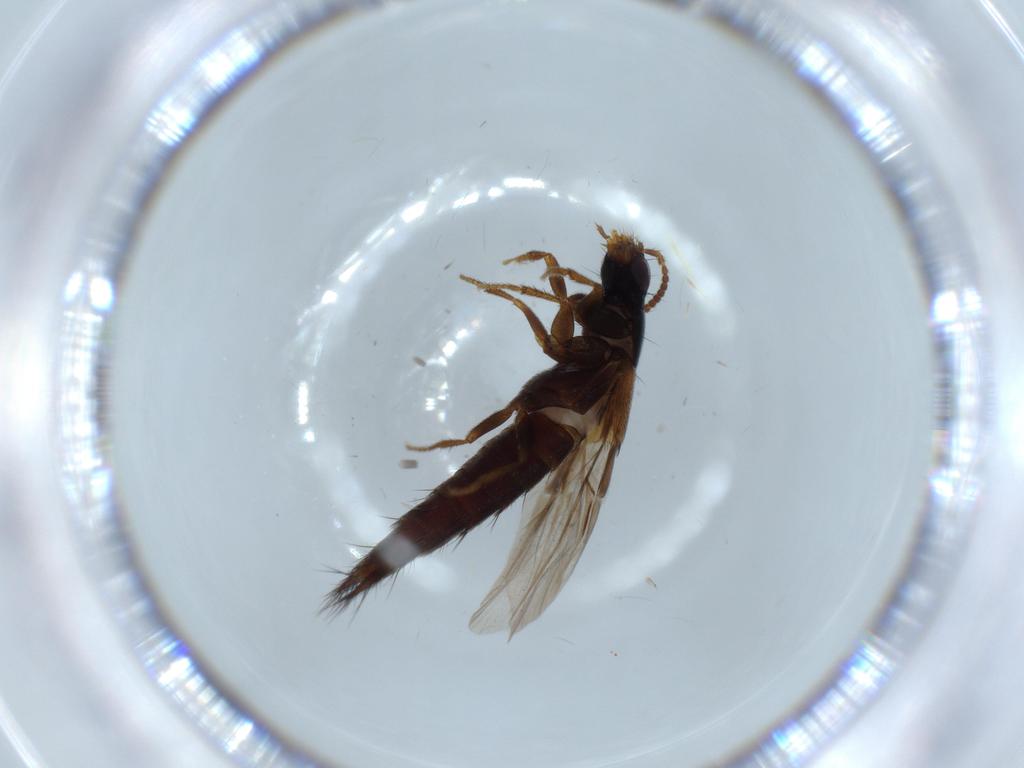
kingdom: Animalia
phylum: Arthropoda
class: Insecta
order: Coleoptera
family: Staphylinidae
